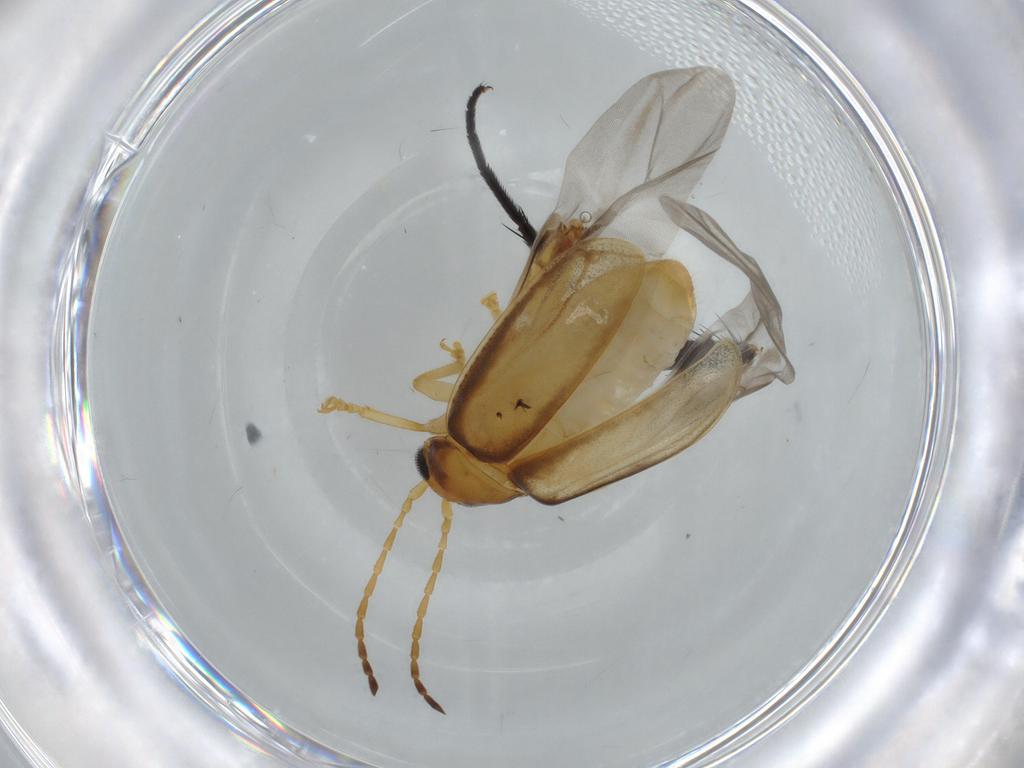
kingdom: Animalia
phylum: Arthropoda
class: Insecta
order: Coleoptera
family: Chrysomelidae
